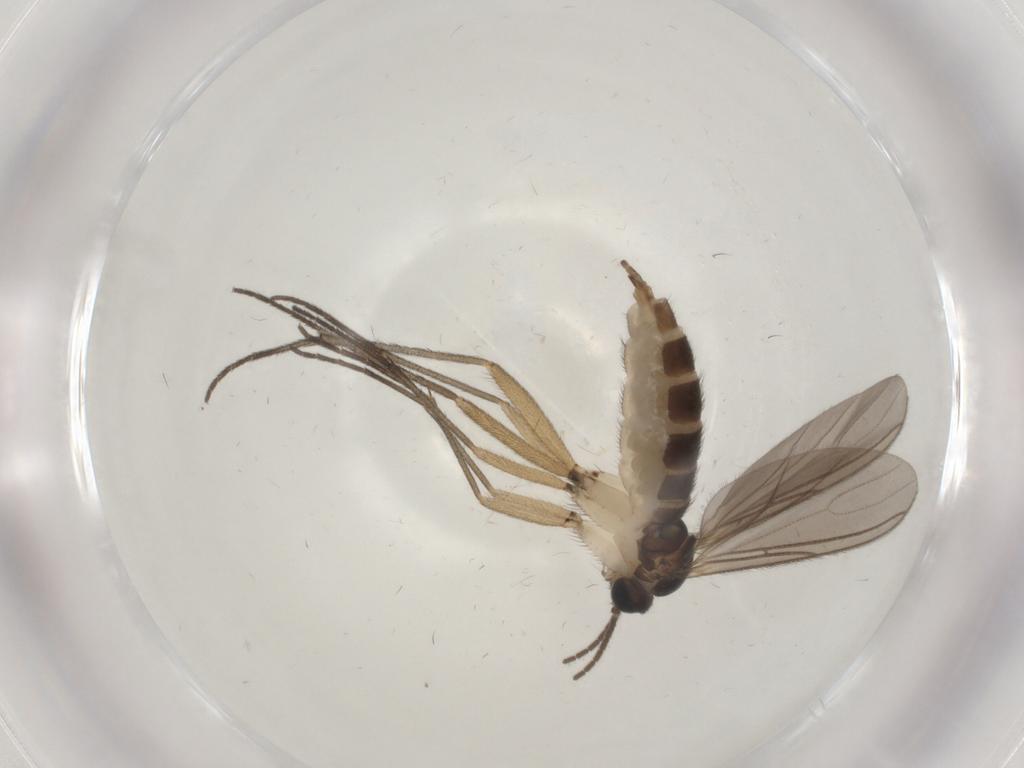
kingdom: Animalia
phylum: Arthropoda
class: Insecta
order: Diptera
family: Sciaridae
